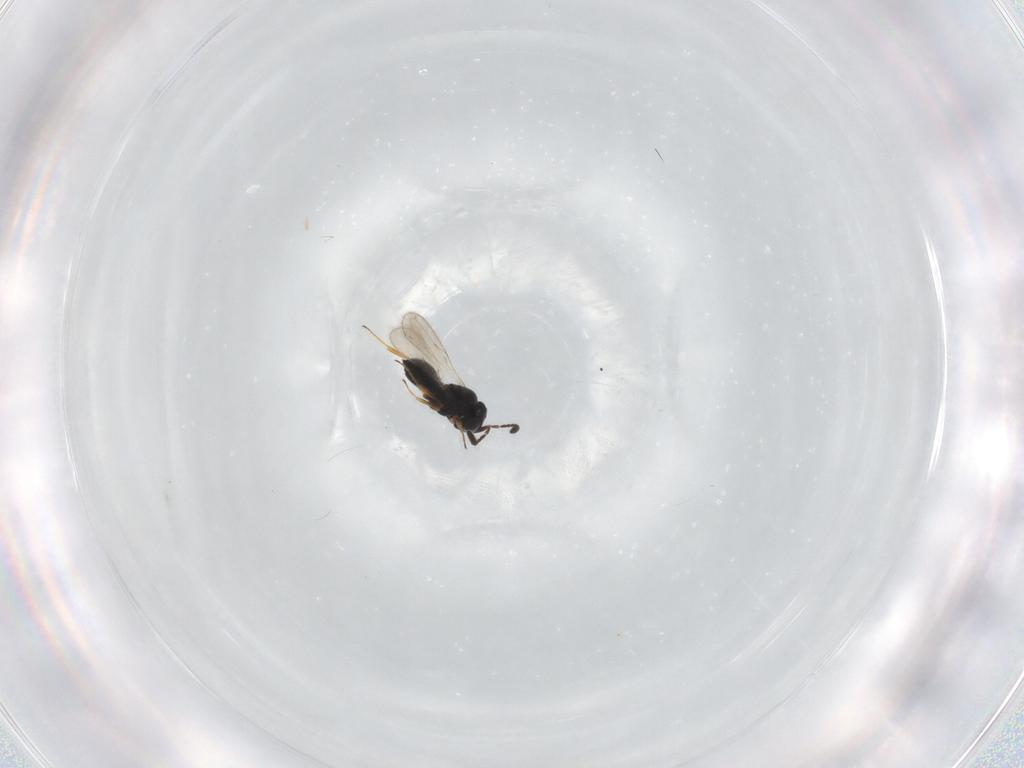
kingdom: Animalia
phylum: Arthropoda
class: Insecta
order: Hymenoptera
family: Scelionidae
